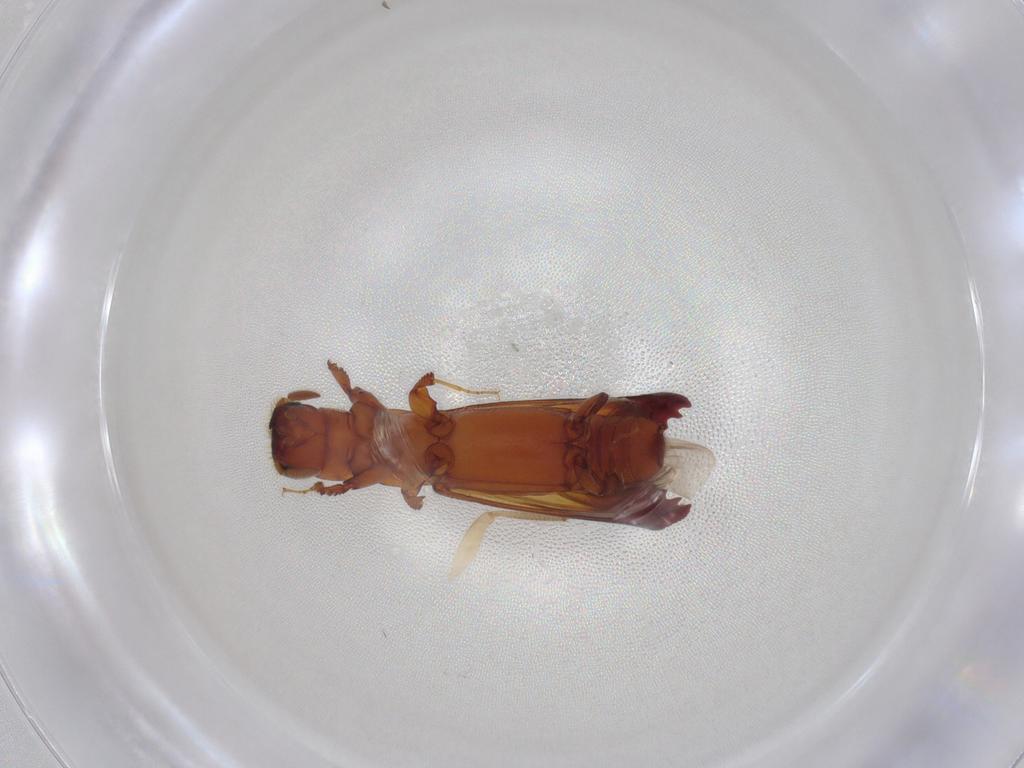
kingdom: Animalia
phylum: Arthropoda
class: Insecta
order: Coleoptera
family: Chrysomelidae
